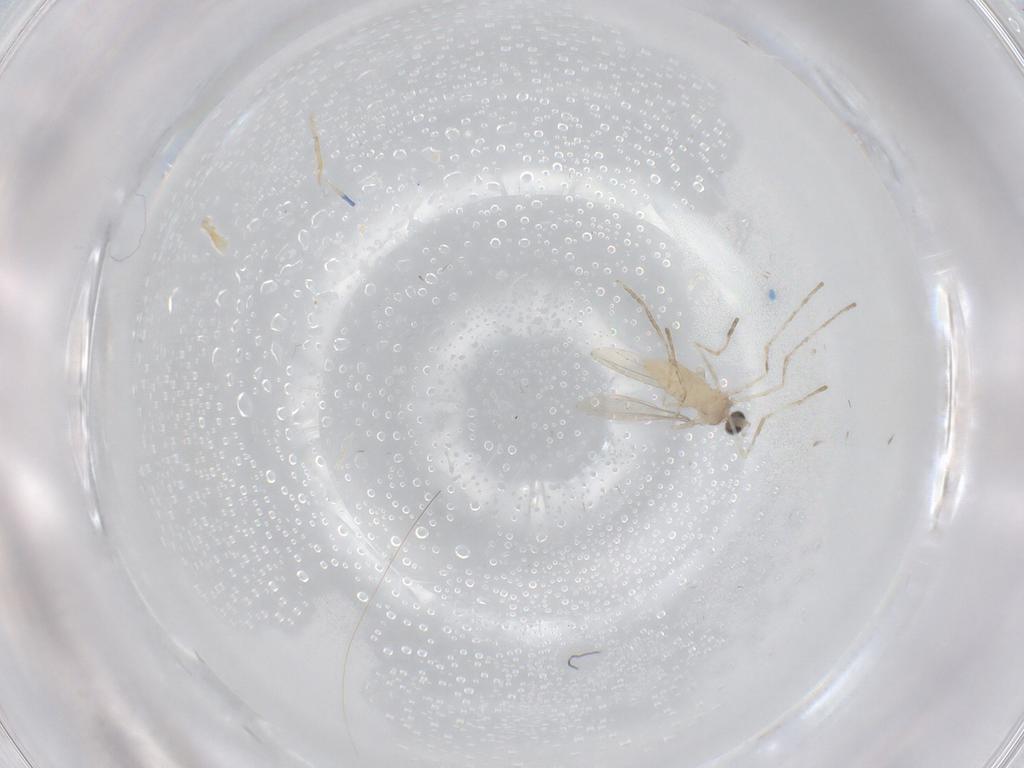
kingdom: Animalia
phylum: Arthropoda
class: Insecta
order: Diptera
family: Cecidomyiidae
